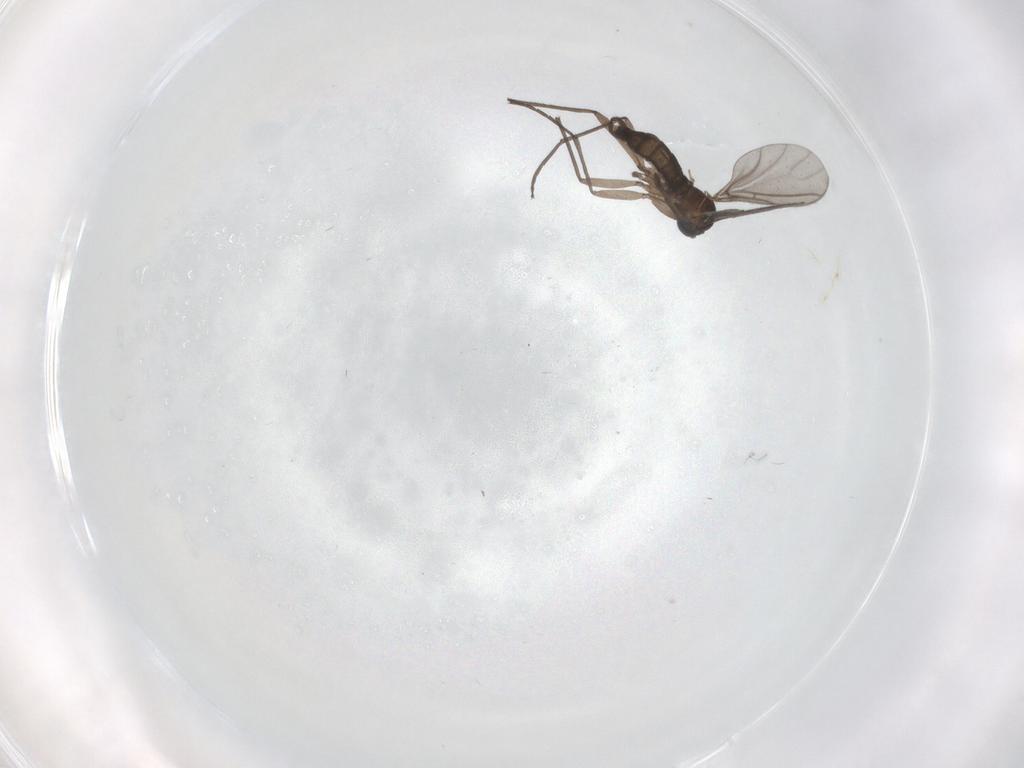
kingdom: Animalia
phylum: Arthropoda
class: Insecta
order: Diptera
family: Sciaridae
